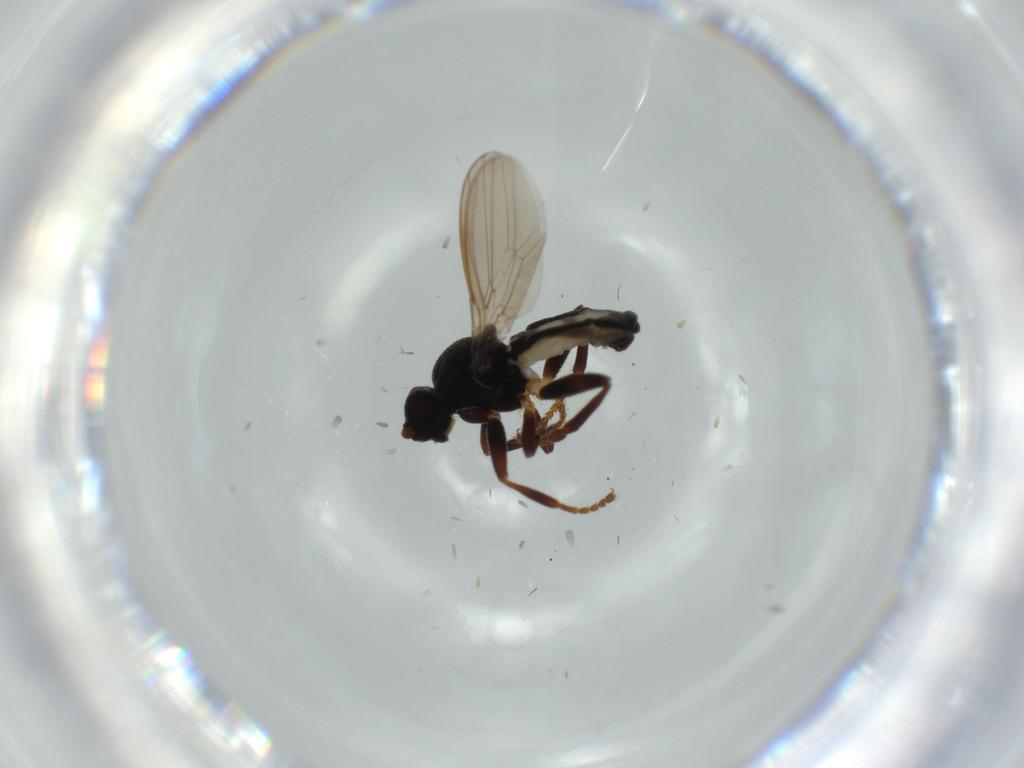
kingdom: Animalia
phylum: Arthropoda
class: Insecta
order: Diptera
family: Sphaeroceridae
